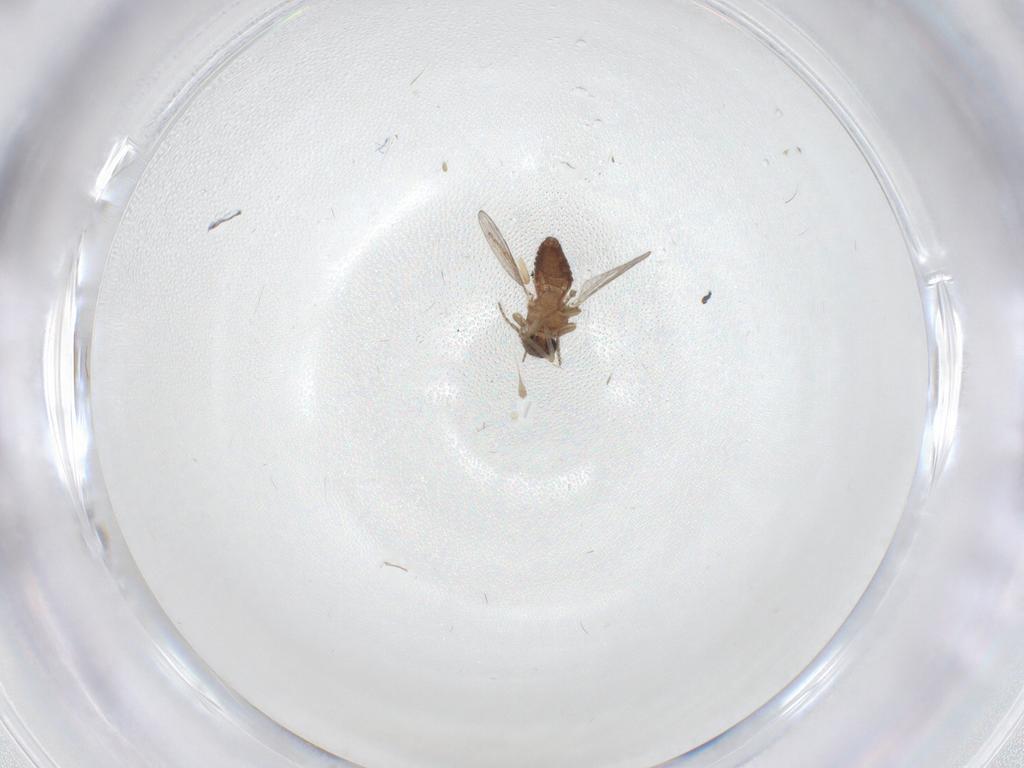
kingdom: Animalia
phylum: Arthropoda
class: Insecta
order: Diptera
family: Ceratopogonidae
